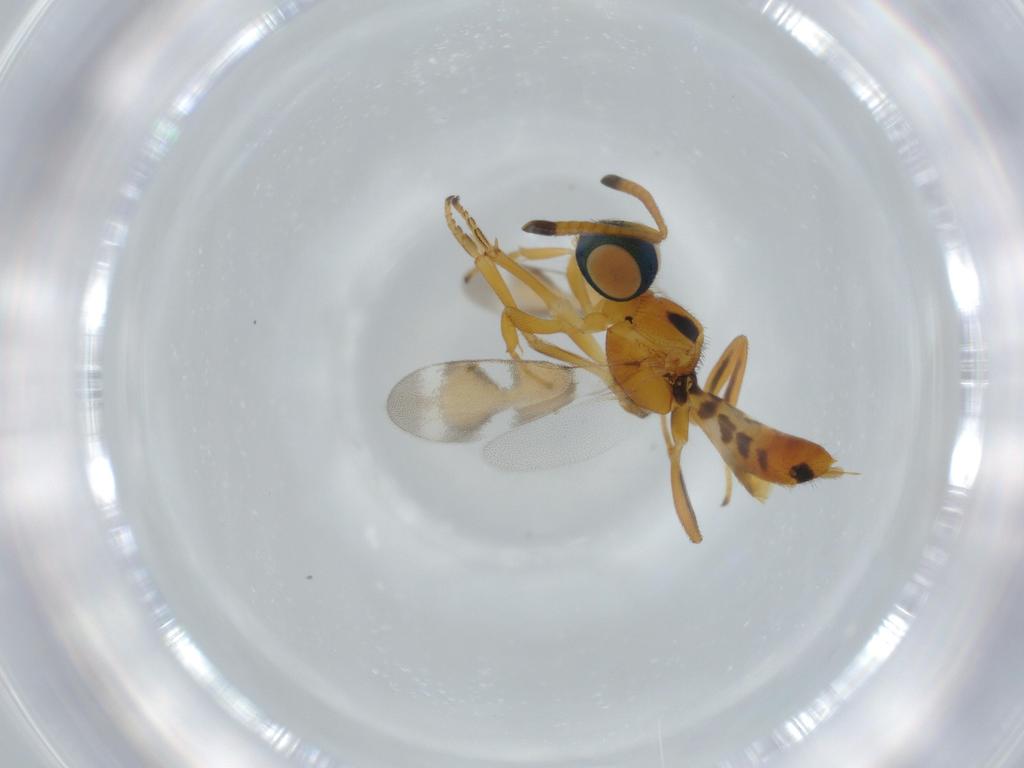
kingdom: Animalia
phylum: Arthropoda
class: Insecta
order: Hymenoptera
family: Eupelmidae
